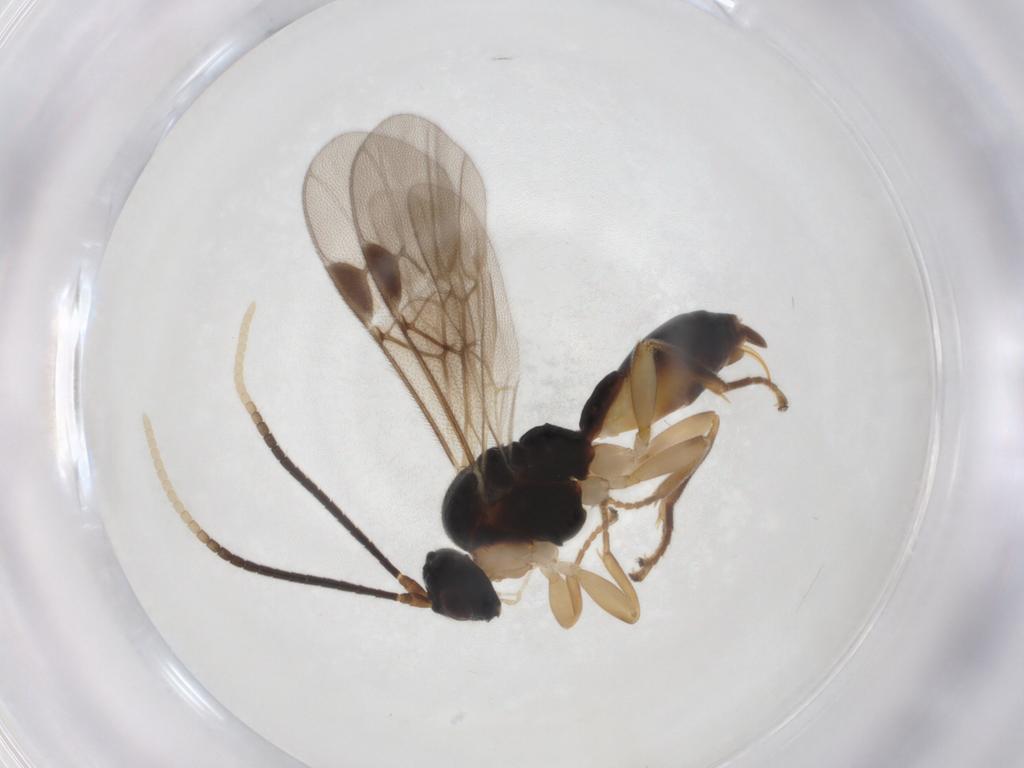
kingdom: Animalia
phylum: Arthropoda
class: Insecta
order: Hymenoptera
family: Braconidae
